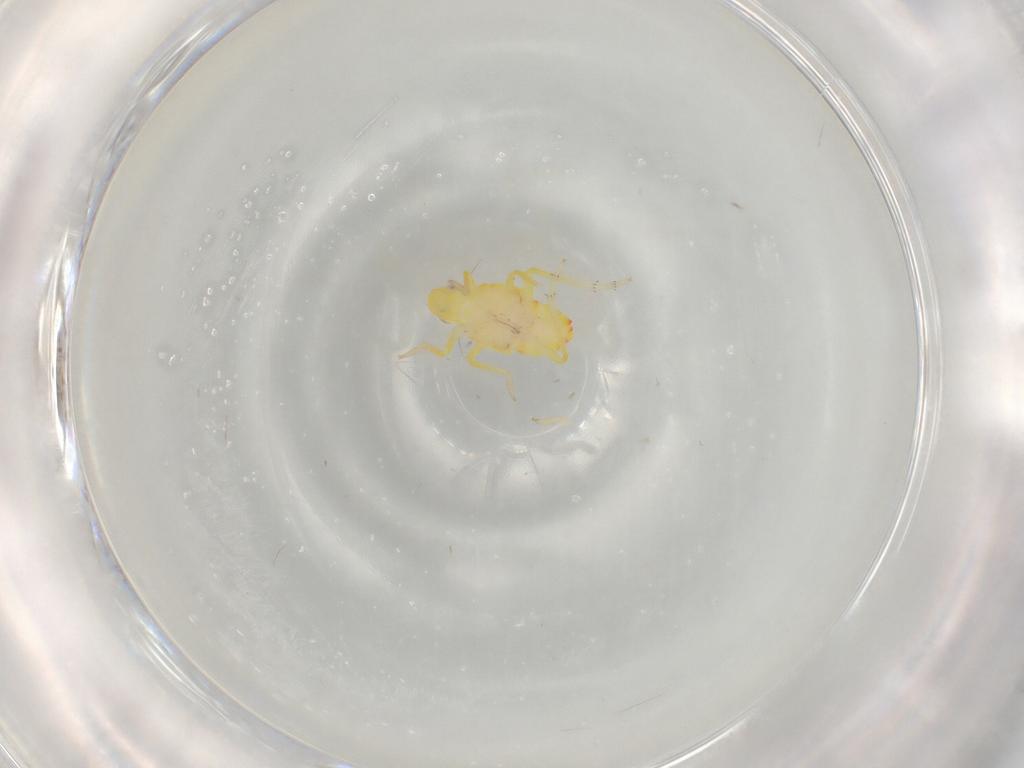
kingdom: Animalia
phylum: Arthropoda
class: Insecta
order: Hemiptera
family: Tropiduchidae
